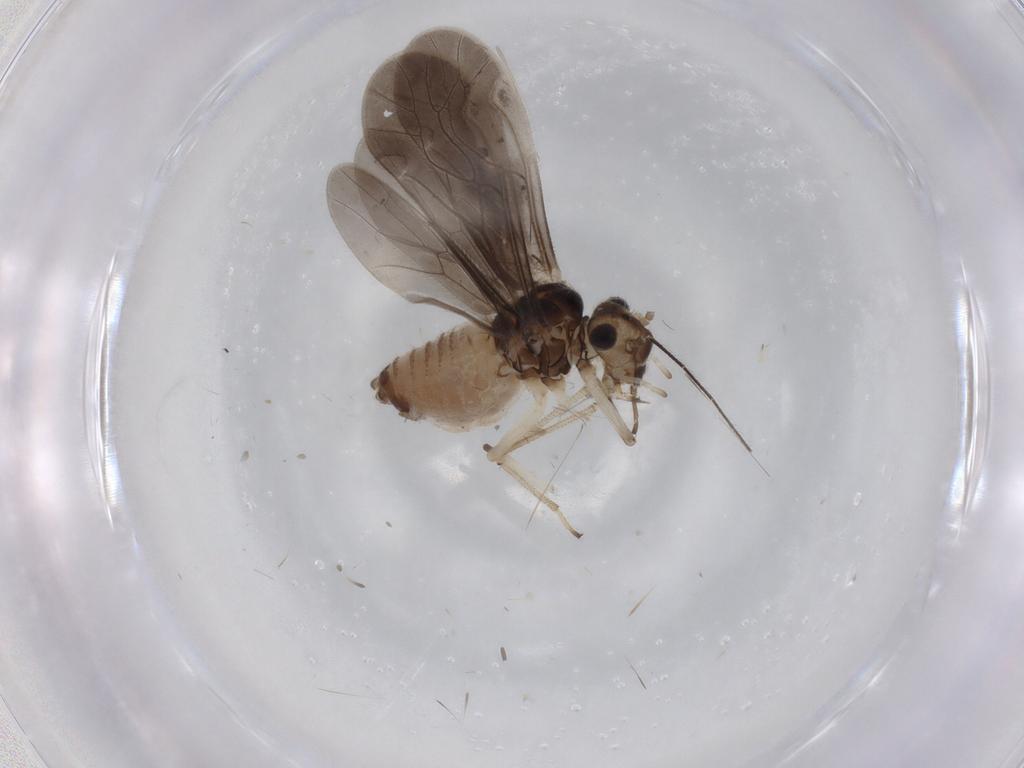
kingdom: Animalia
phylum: Arthropoda
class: Insecta
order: Psocodea
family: Caeciliusidae
